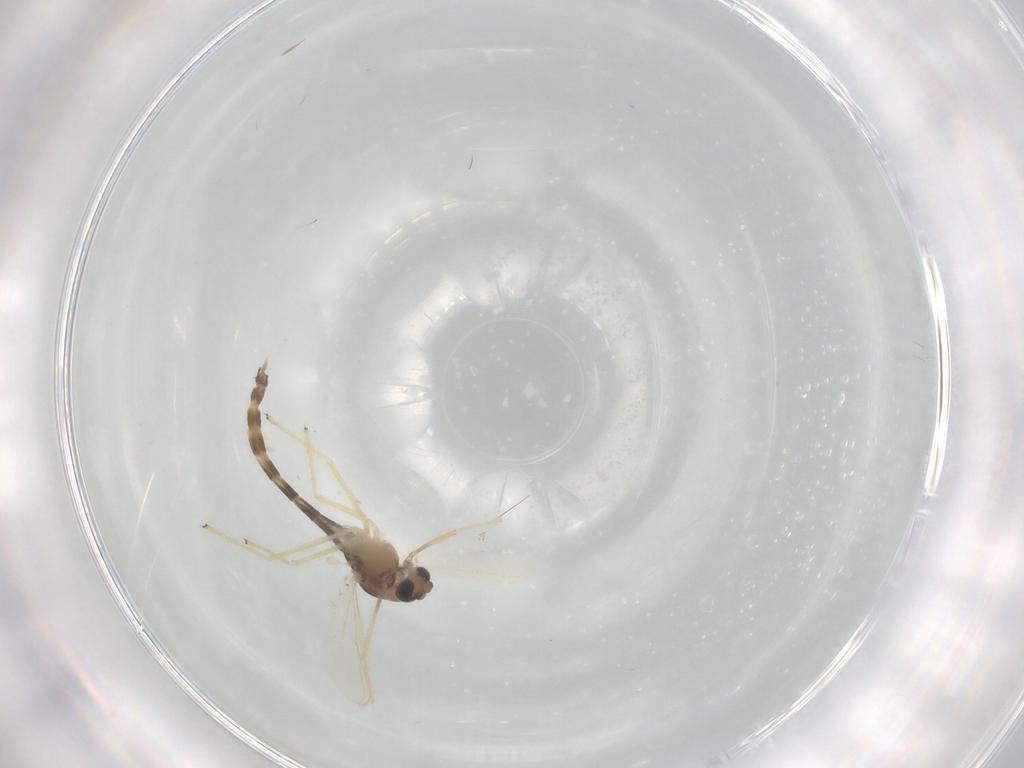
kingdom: Animalia
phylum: Arthropoda
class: Insecta
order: Diptera
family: Chironomidae
